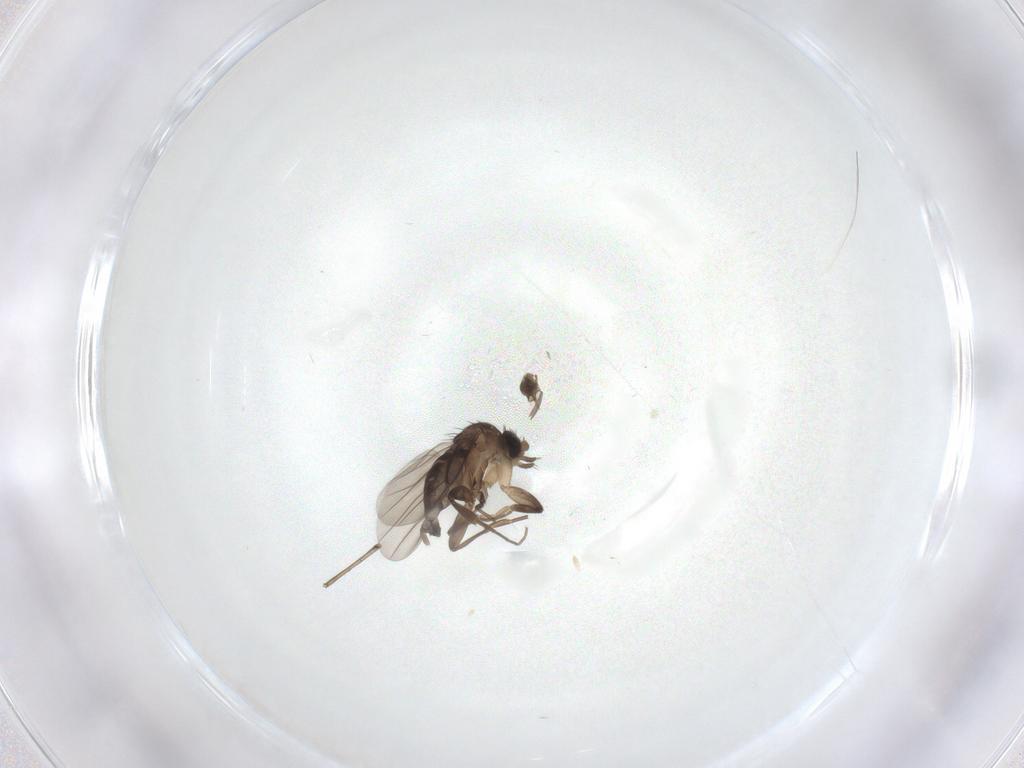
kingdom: Animalia
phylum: Arthropoda
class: Insecta
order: Diptera
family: Phoridae
